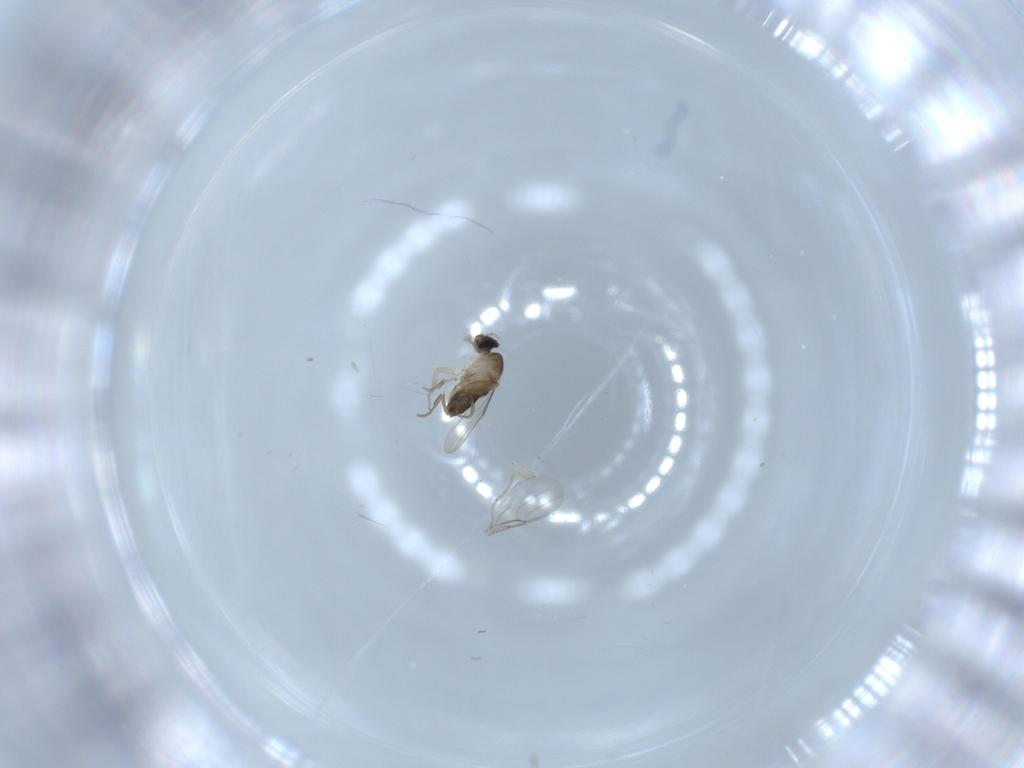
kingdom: Animalia
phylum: Arthropoda
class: Insecta
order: Diptera
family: Phoridae
